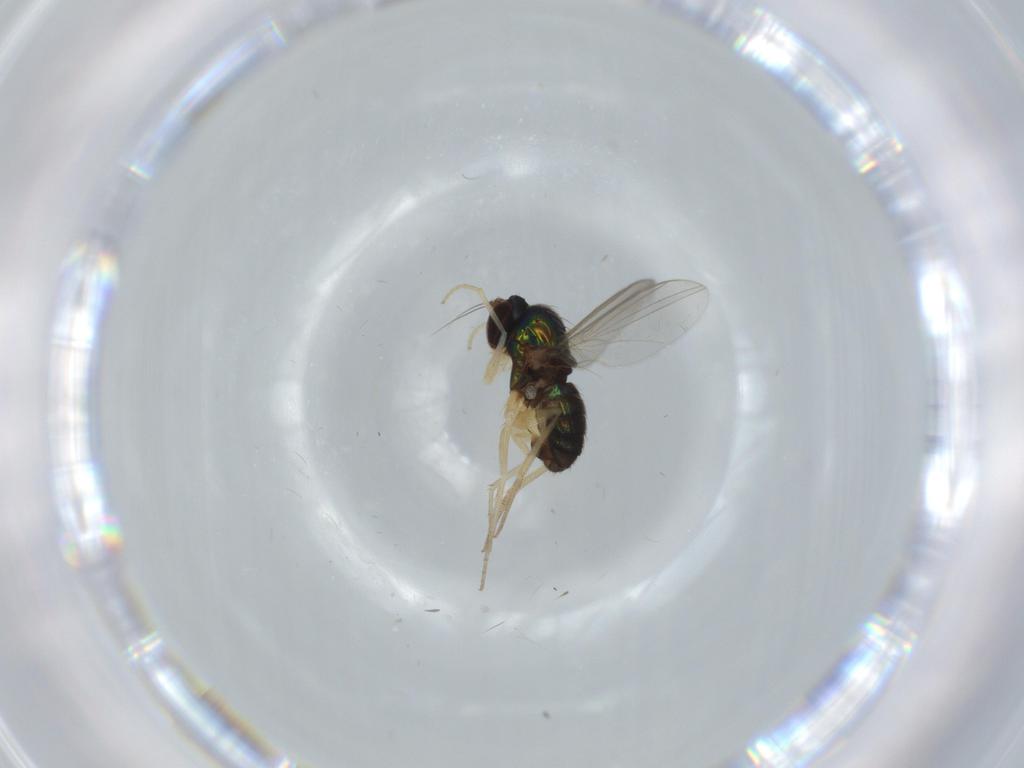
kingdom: Animalia
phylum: Arthropoda
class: Insecta
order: Diptera
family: Dolichopodidae
